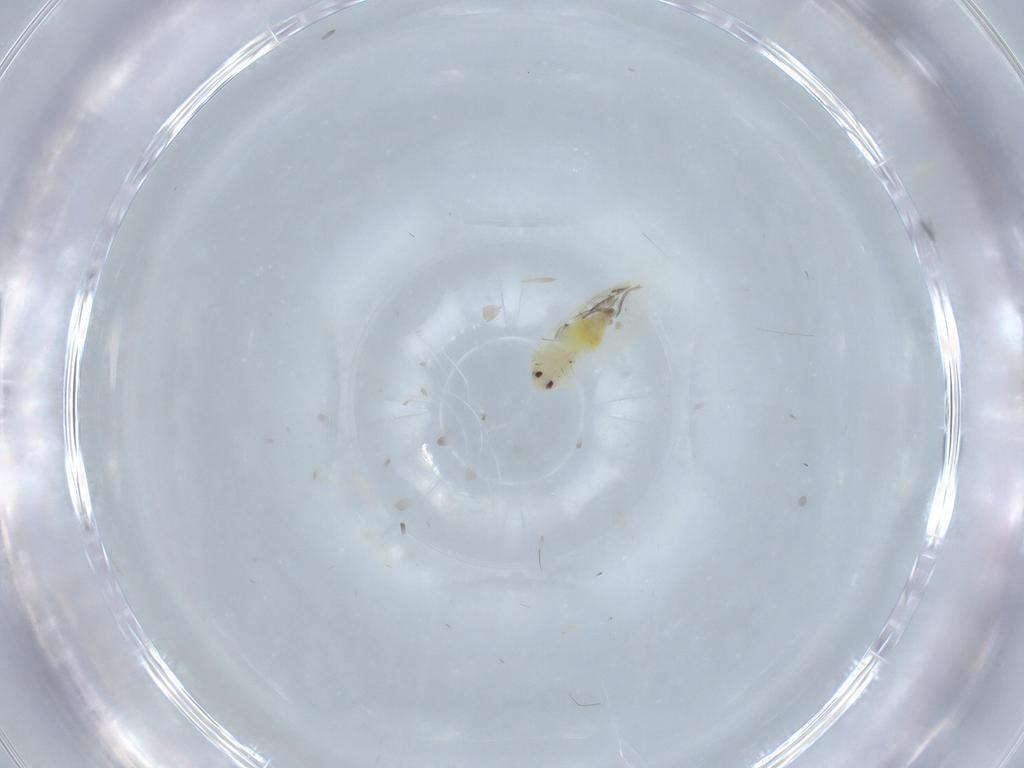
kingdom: Animalia
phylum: Arthropoda
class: Insecta
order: Hemiptera
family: Aleyrodidae
